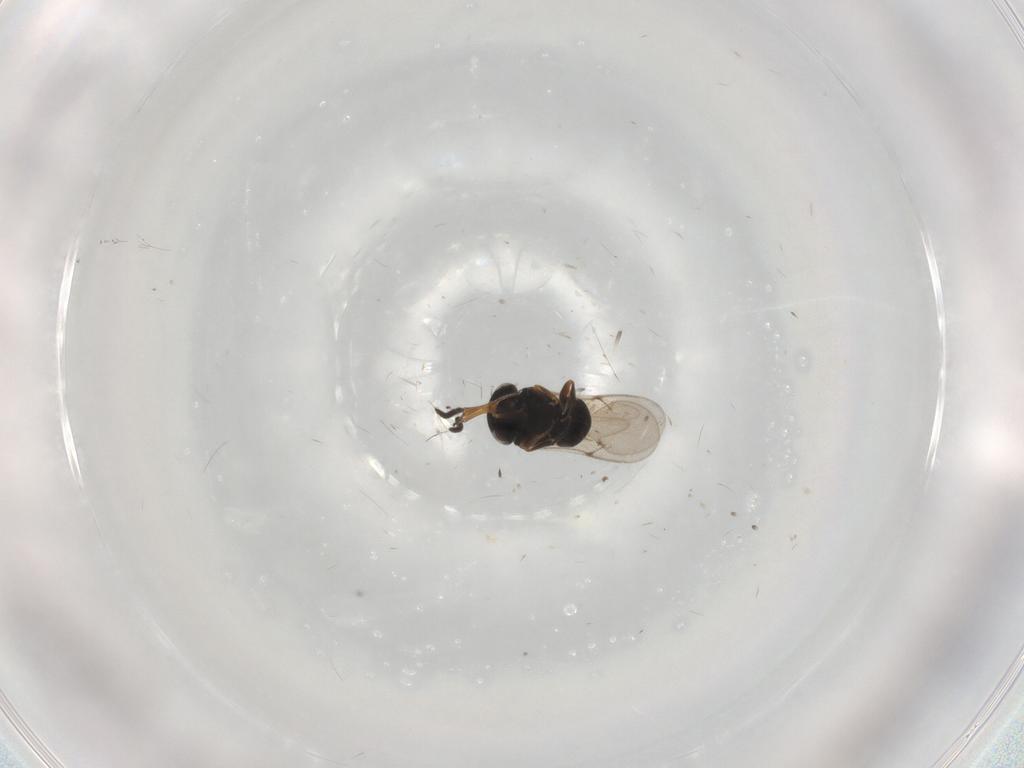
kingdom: Animalia
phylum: Arthropoda
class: Insecta
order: Hymenoptera
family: Scelionidae
